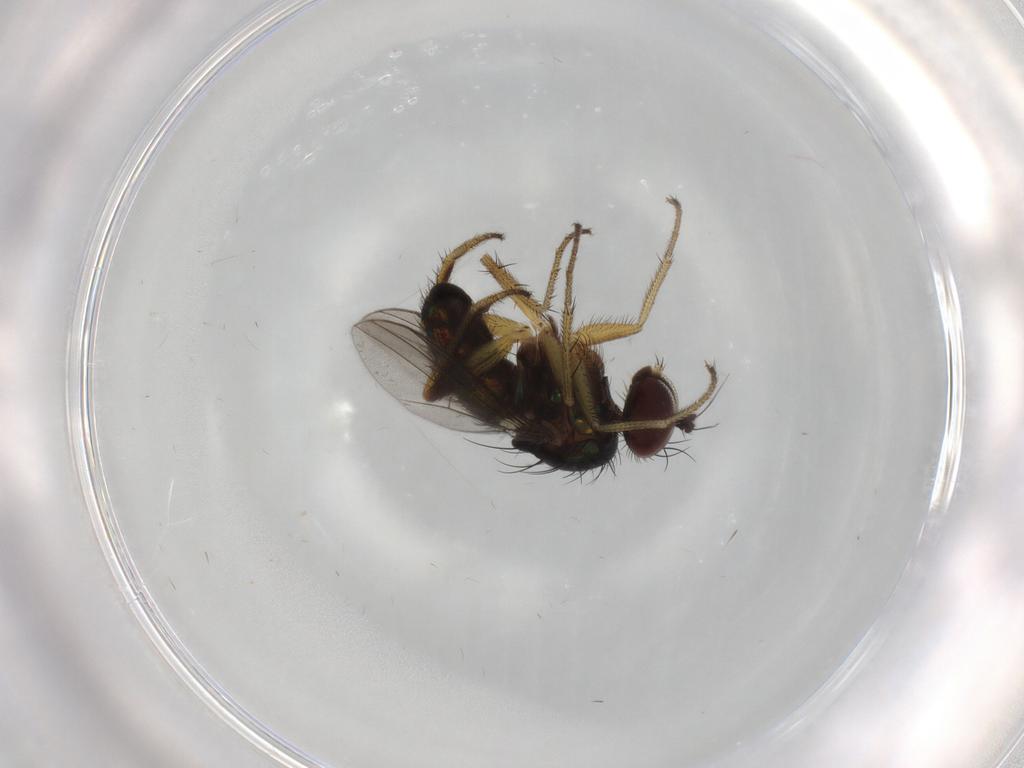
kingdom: Animalia
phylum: Arthropoda
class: Insecta
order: Diptera
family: Dolichopodidae
